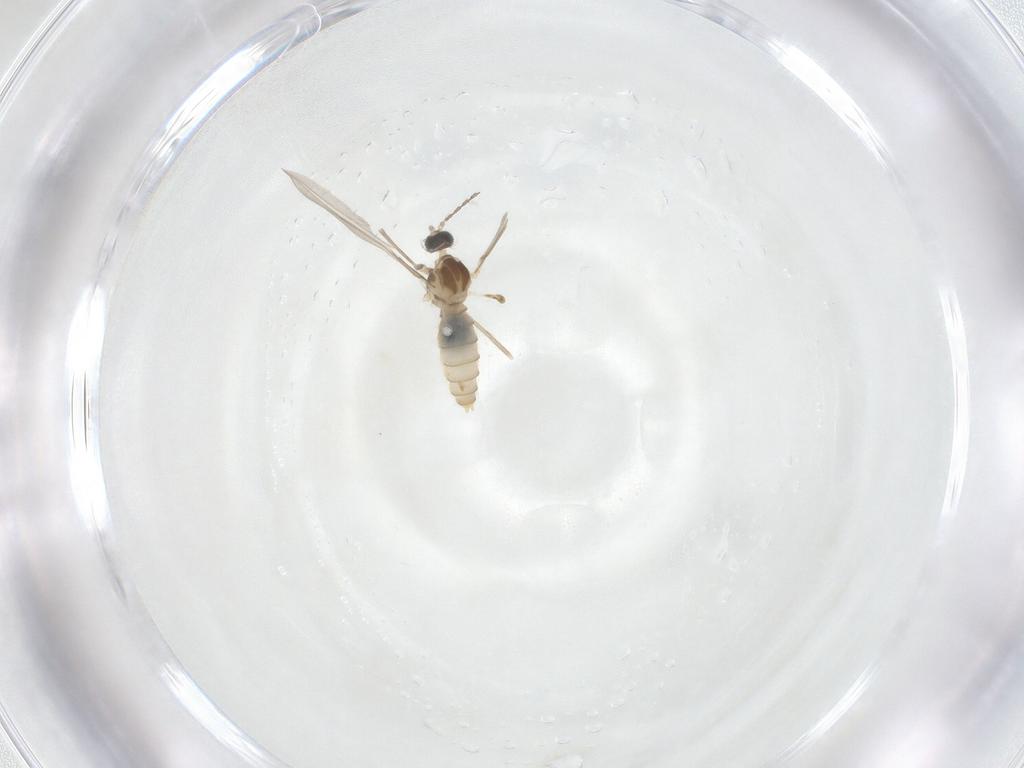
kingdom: Animalia
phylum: Arthropoda
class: Insecta
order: Diptera
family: Cecidomyiidae
